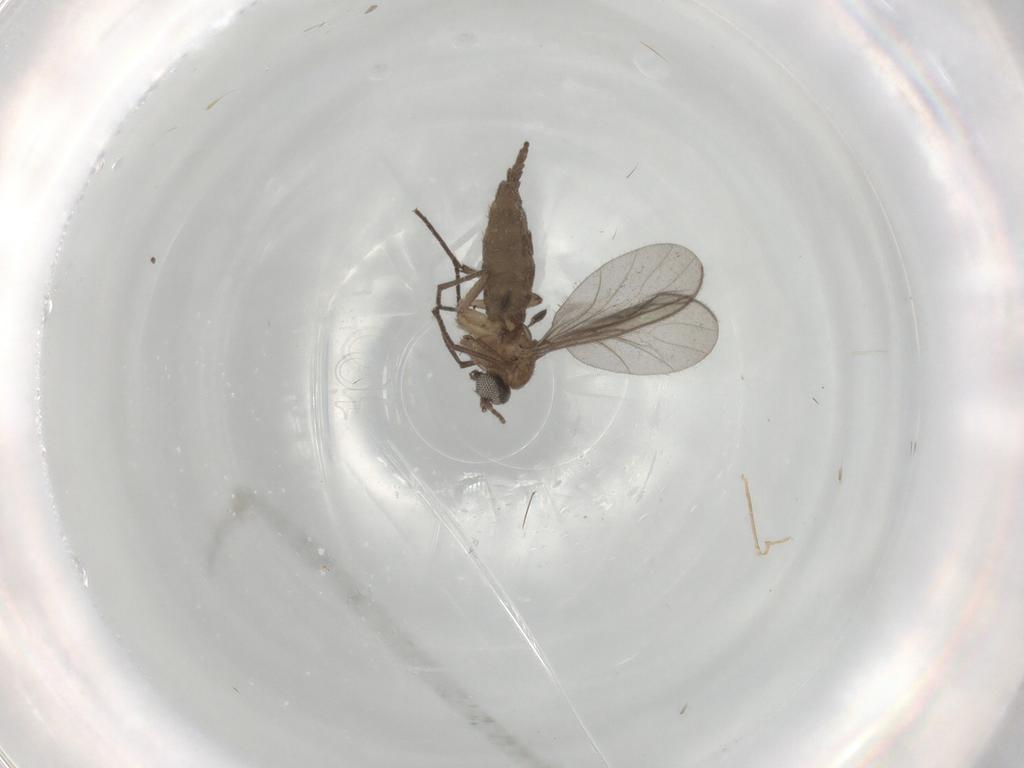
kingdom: Animalia
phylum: Arthropoda
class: Insecta
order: Diptera
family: Sciaridae
